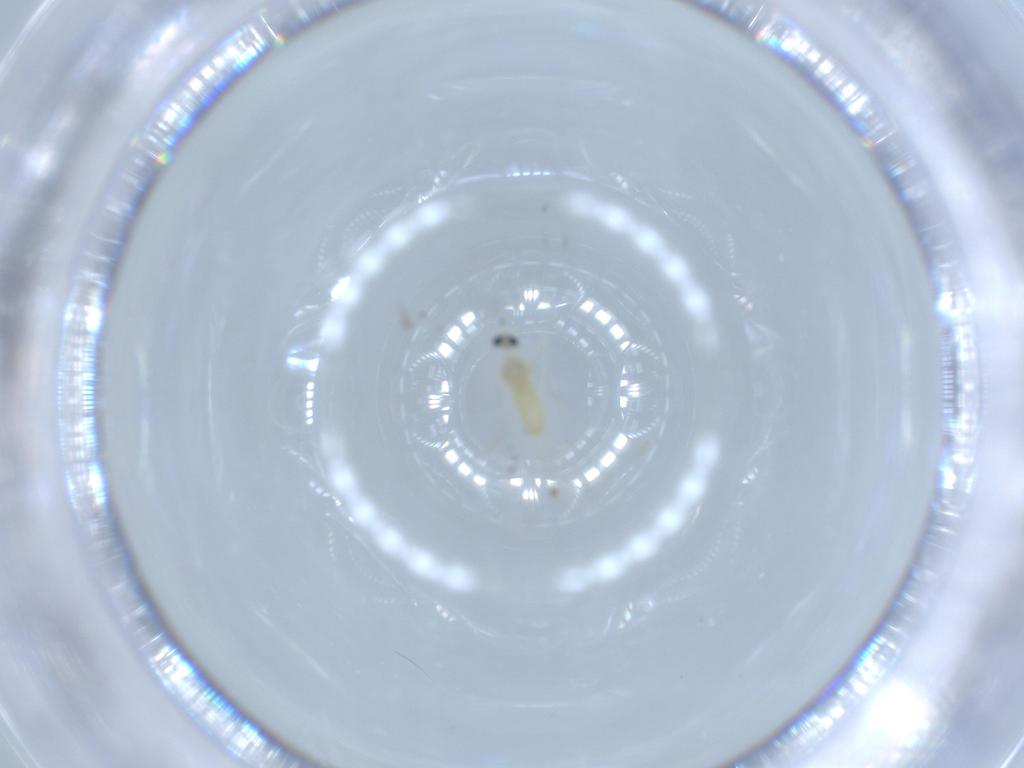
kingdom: Animalia
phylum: Arthropoda
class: Insecta
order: Diptera
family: Cecidomyiidae
